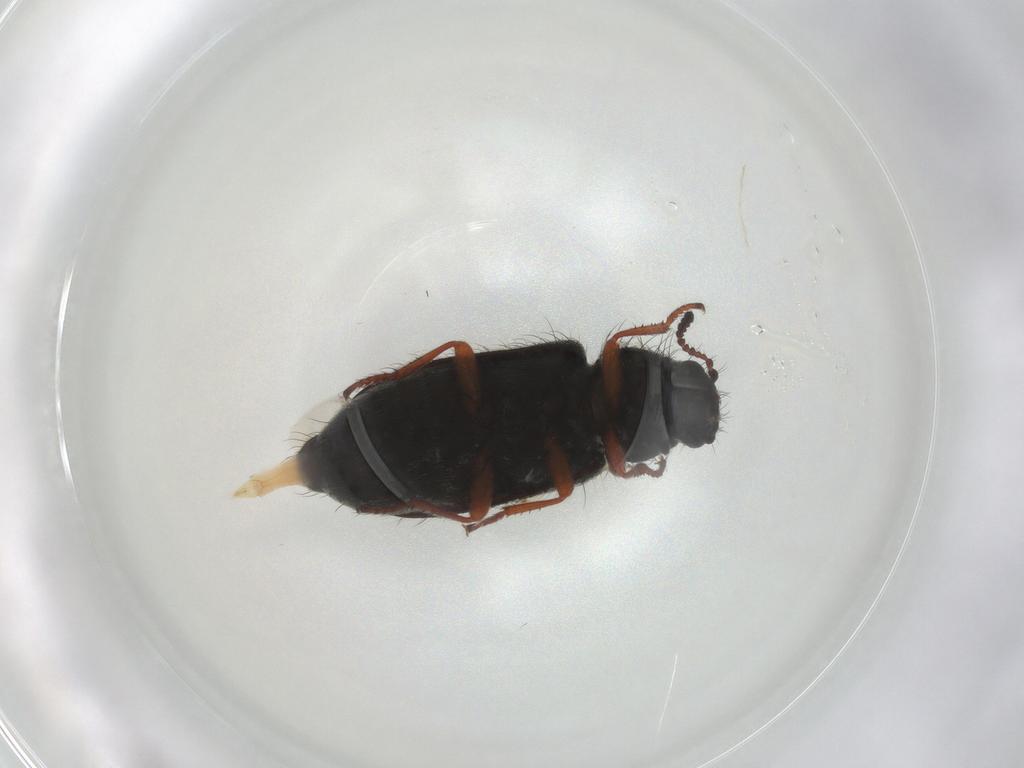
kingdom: Animalia
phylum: Arthropoda
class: Insecta
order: Coleoptera
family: Melyridae
